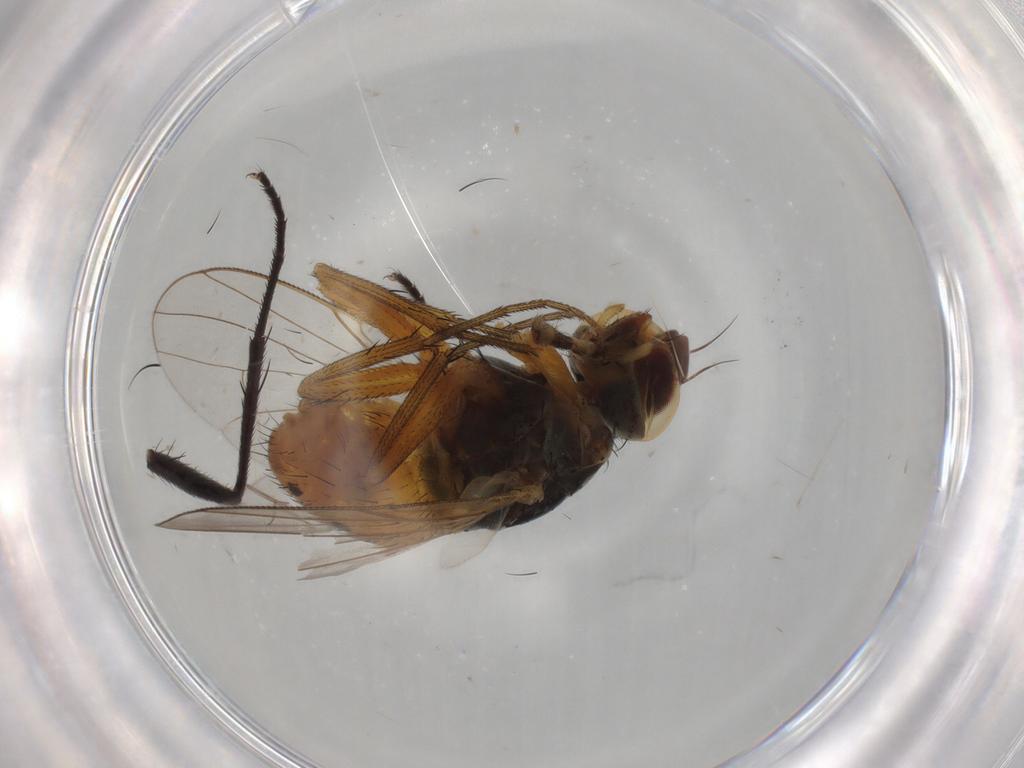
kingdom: Animalia
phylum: Arthropoda
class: Insecta
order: Diptera
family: Muscidae
